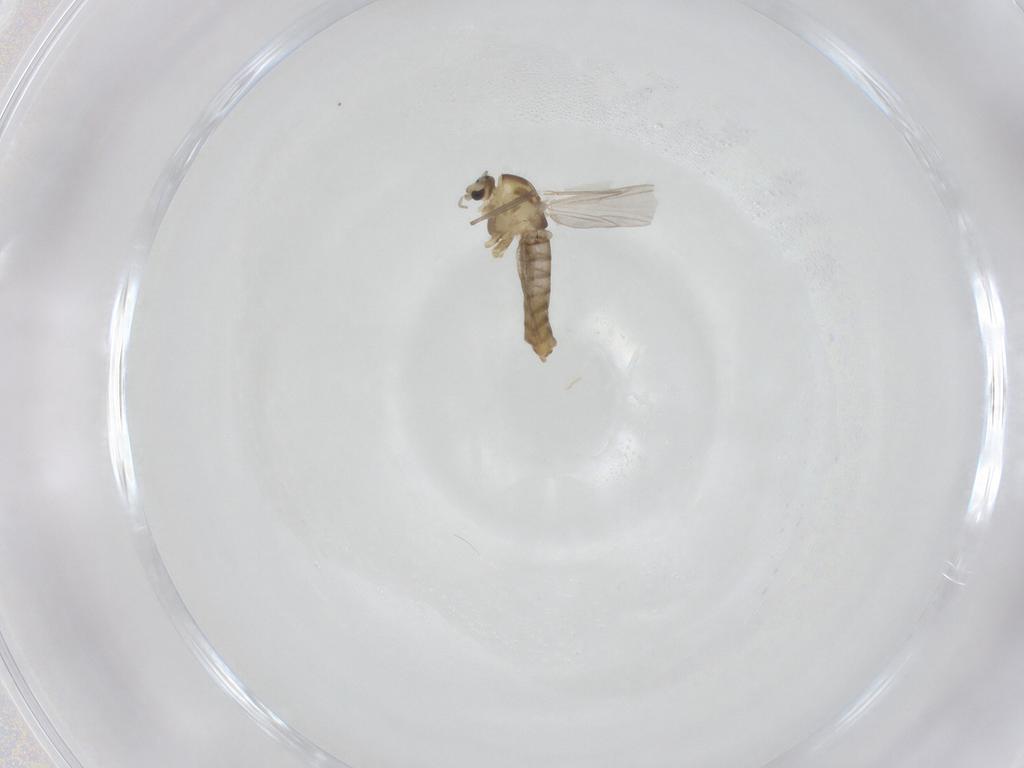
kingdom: Animalia
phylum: Arthropoda
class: Insecta
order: Diptera
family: Chironomidae
